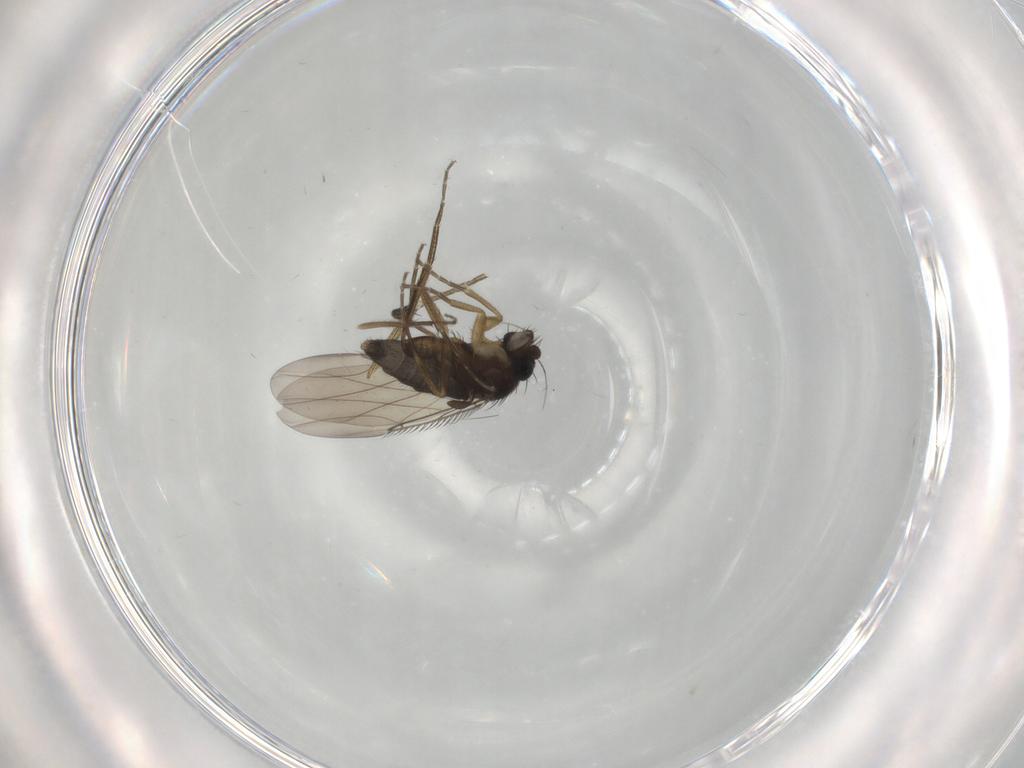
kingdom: Animalia
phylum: Arthropoda
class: Insecta
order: Diptera
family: Phoridae
